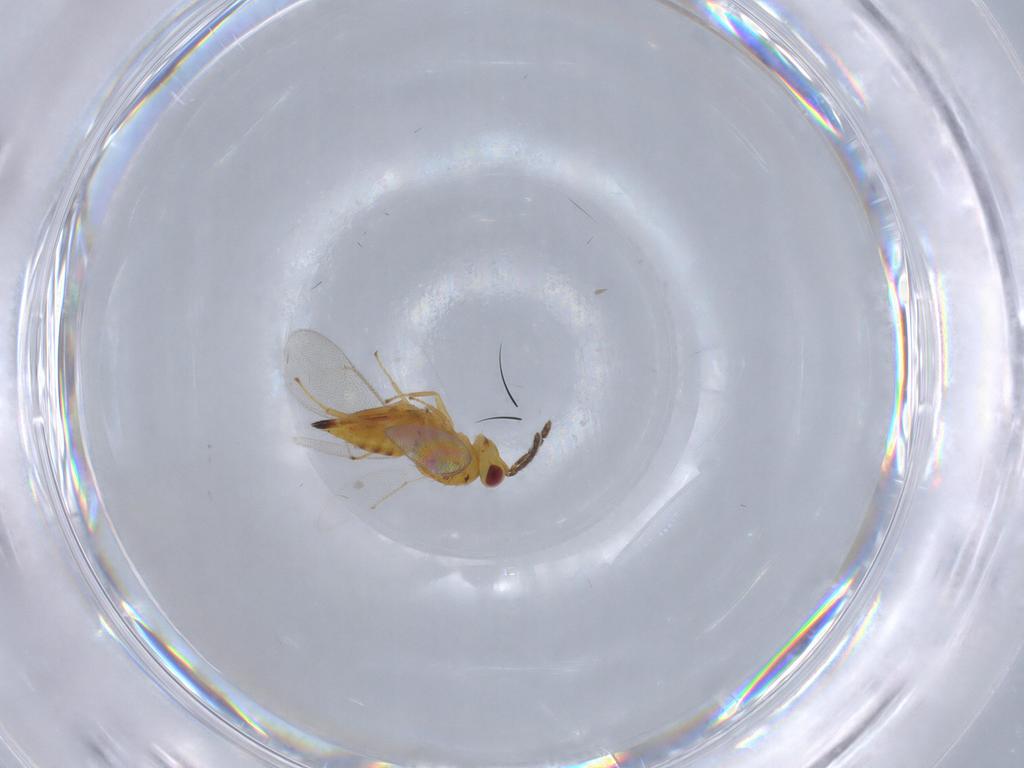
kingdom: Animalia
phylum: Arthropoda
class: Insecta
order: Hymenoptera
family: Eulophidae
